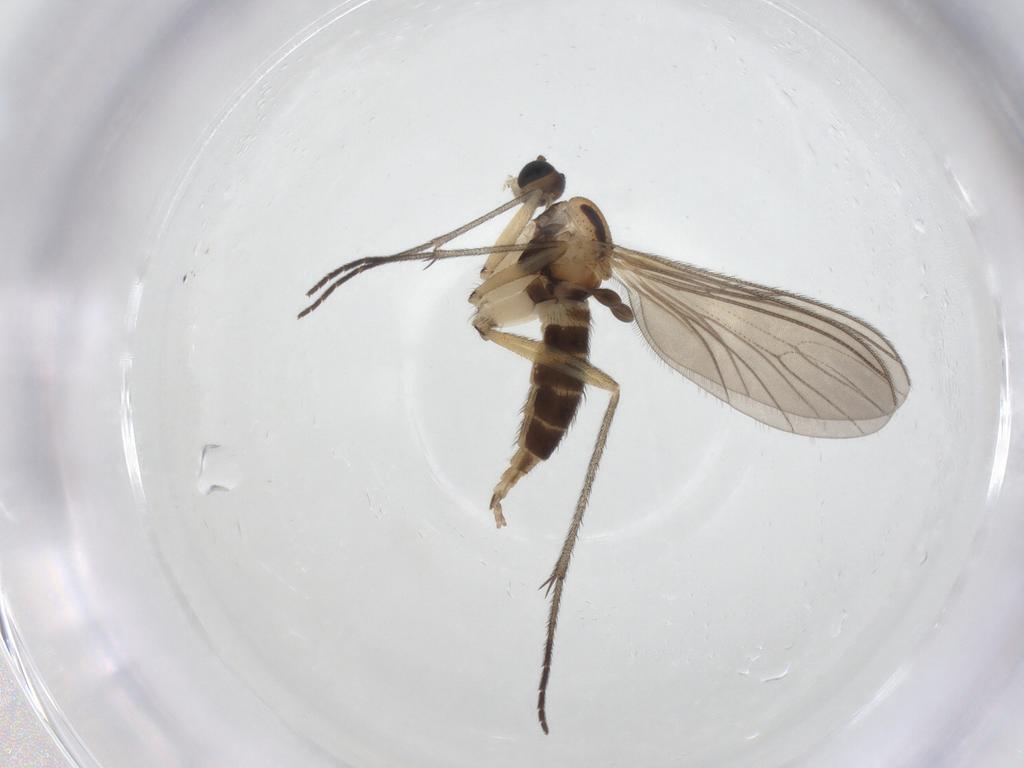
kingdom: Animalia
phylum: Arthropoda
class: Insecta
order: Diptera
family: Sciaridae
